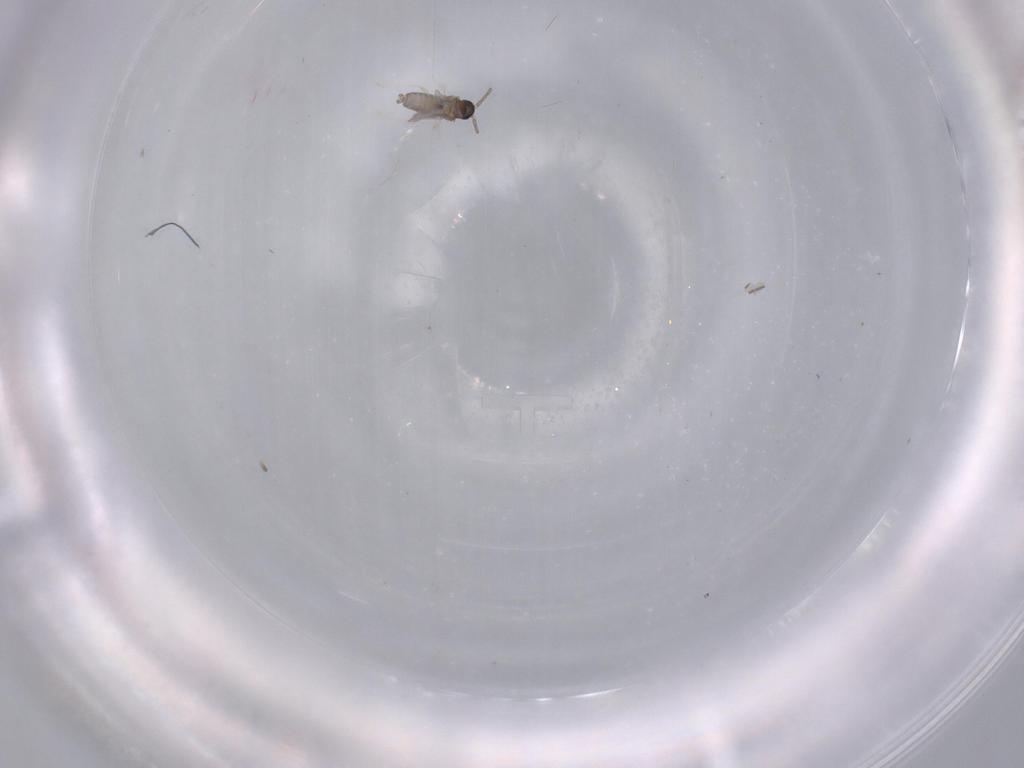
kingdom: Animalia
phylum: Arthropoda
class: Insecta
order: Diptera
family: Cecidomyiidae
